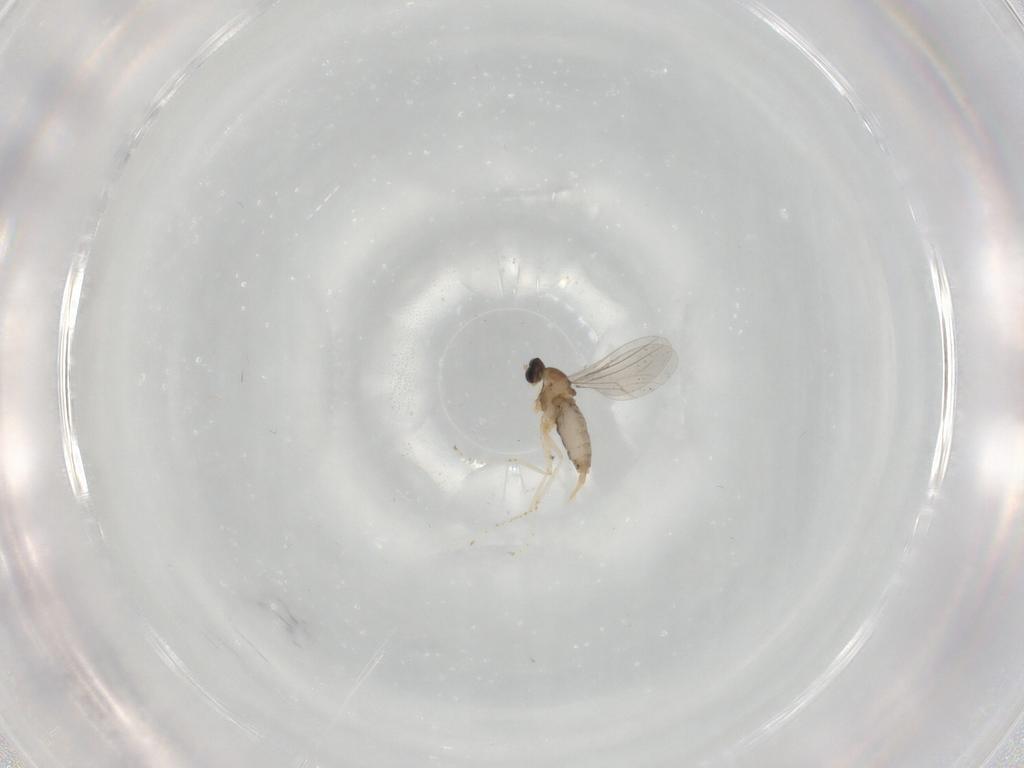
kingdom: Animalia
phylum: Arthropoda
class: Insecta
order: Diptera
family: Cecidomyiidae
